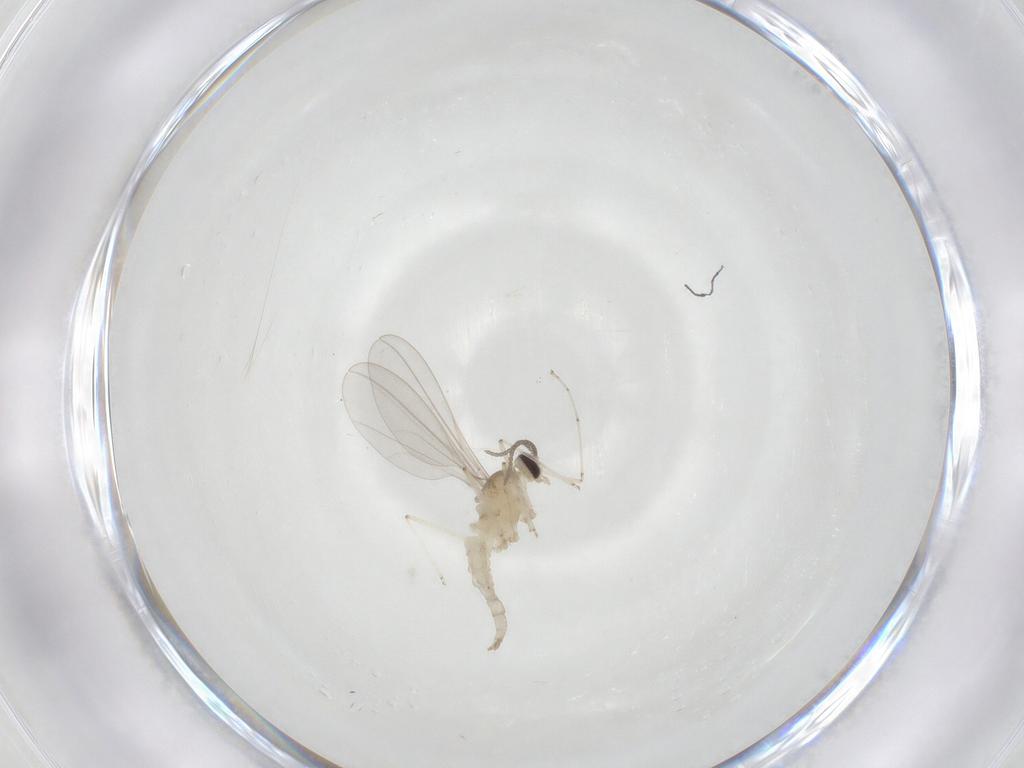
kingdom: Animalia
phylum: Arthropoda
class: Insecta
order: Diptera
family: Cecidomyiidae
